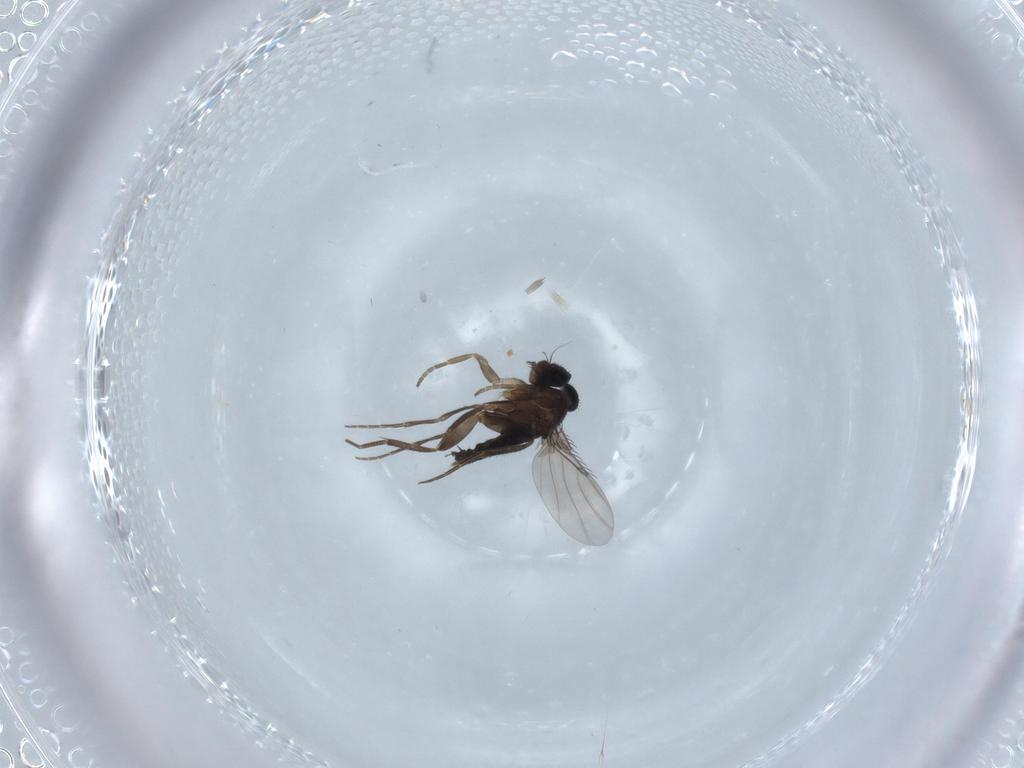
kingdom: Animalia
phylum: Arthropoda
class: Insecta
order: Diptera
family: Phoridae
